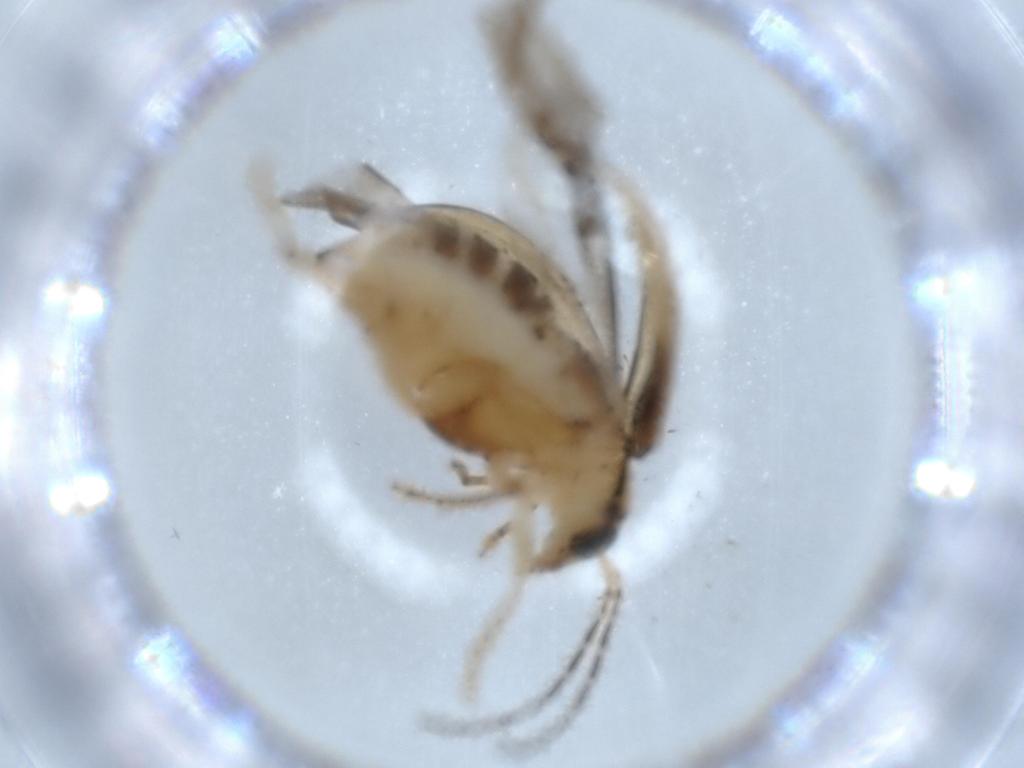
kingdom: Animalia
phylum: Arthropoda
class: Insecta
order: Coleoptera
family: Chrysomelidae
